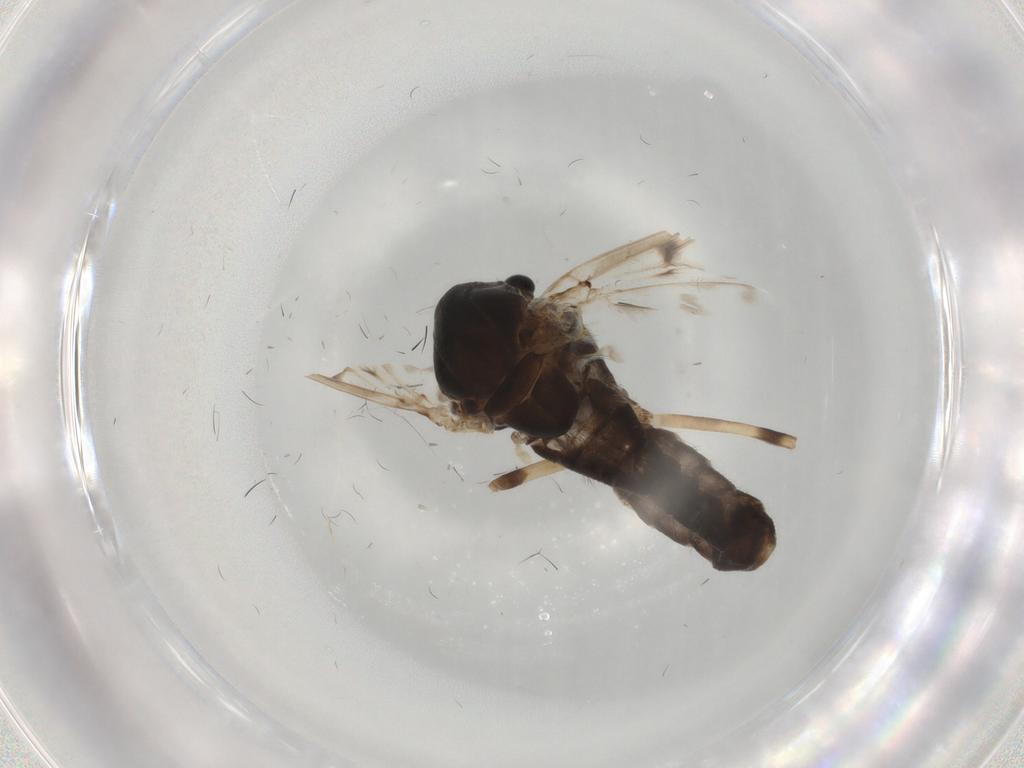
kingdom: Animalia
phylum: Arthropoda
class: Insecta
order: Diptera
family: Chironomidae
